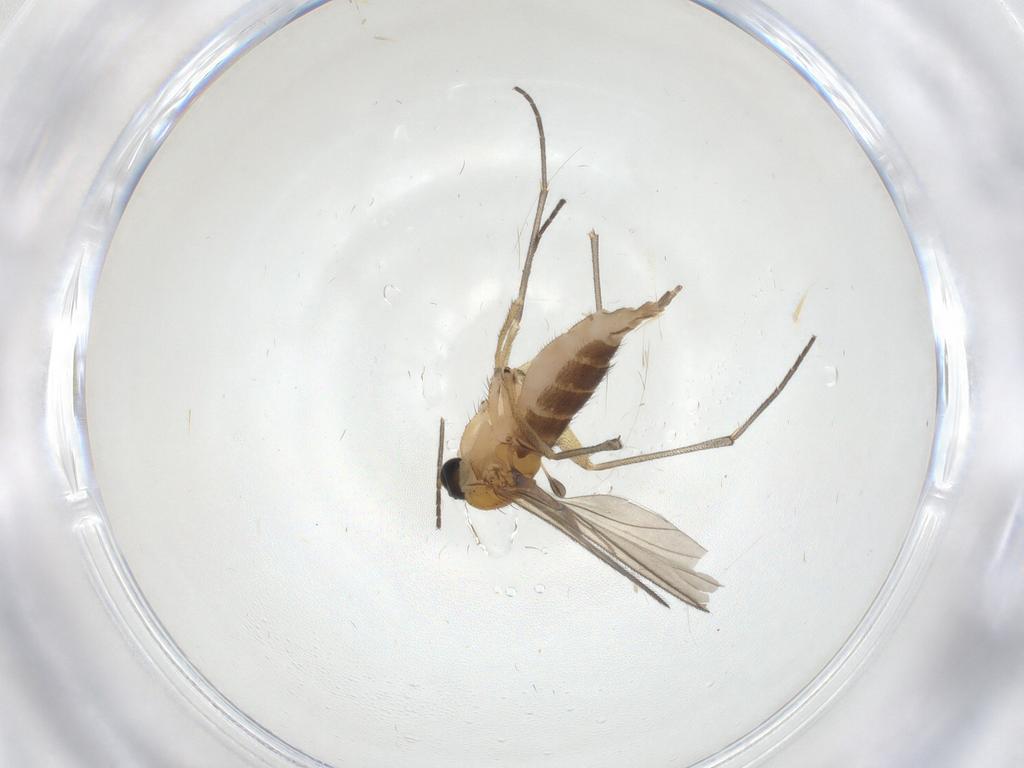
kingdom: Animalia
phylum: Arthropoda
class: Insecta
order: Diptera
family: Sciaridae
